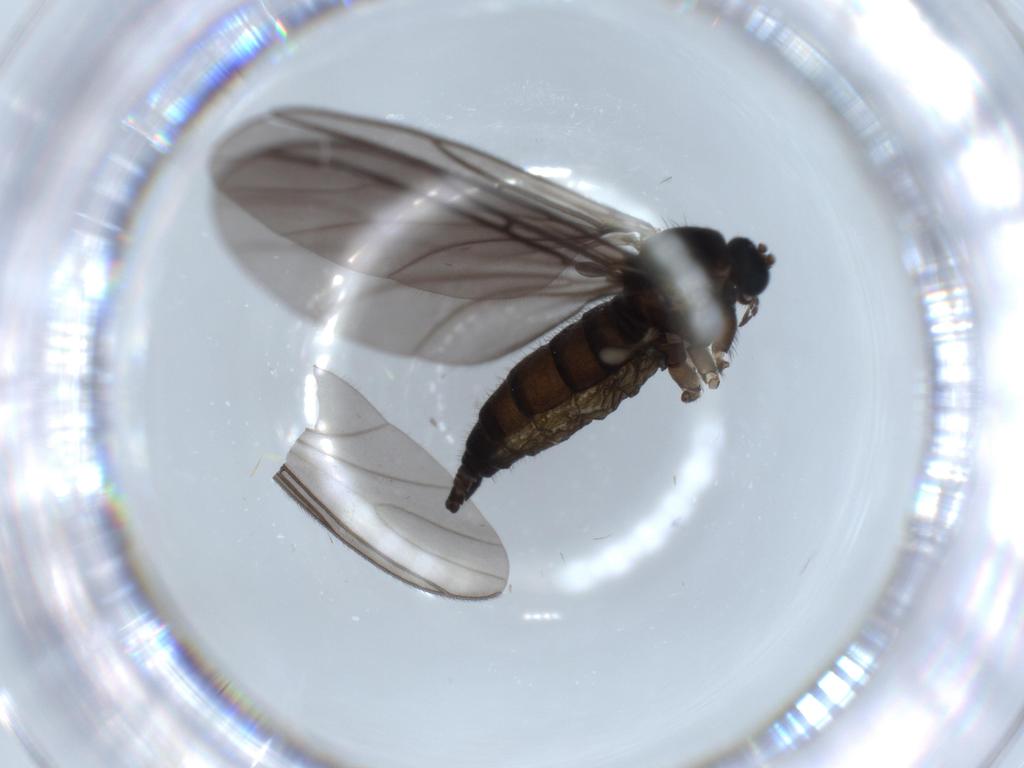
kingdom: Animalia
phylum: Arthropoda
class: Insecta
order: Diptera
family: Sciaridae
